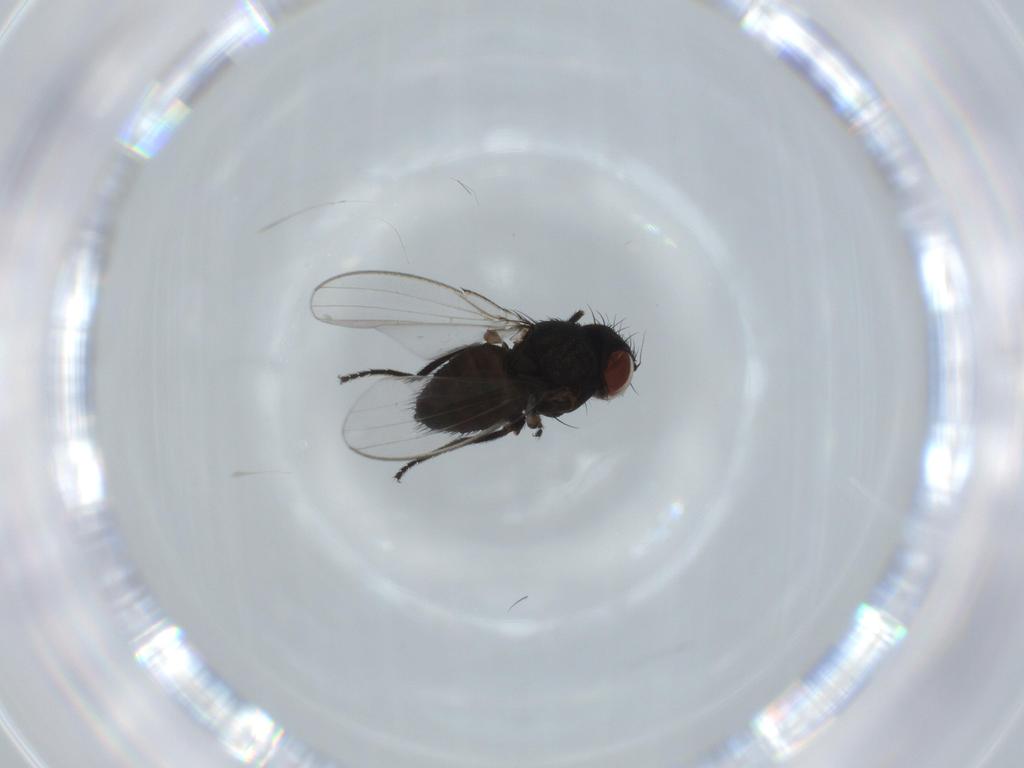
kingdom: Animalia
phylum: Arthropoda
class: Insecta
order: Diptera
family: Milichiidae
